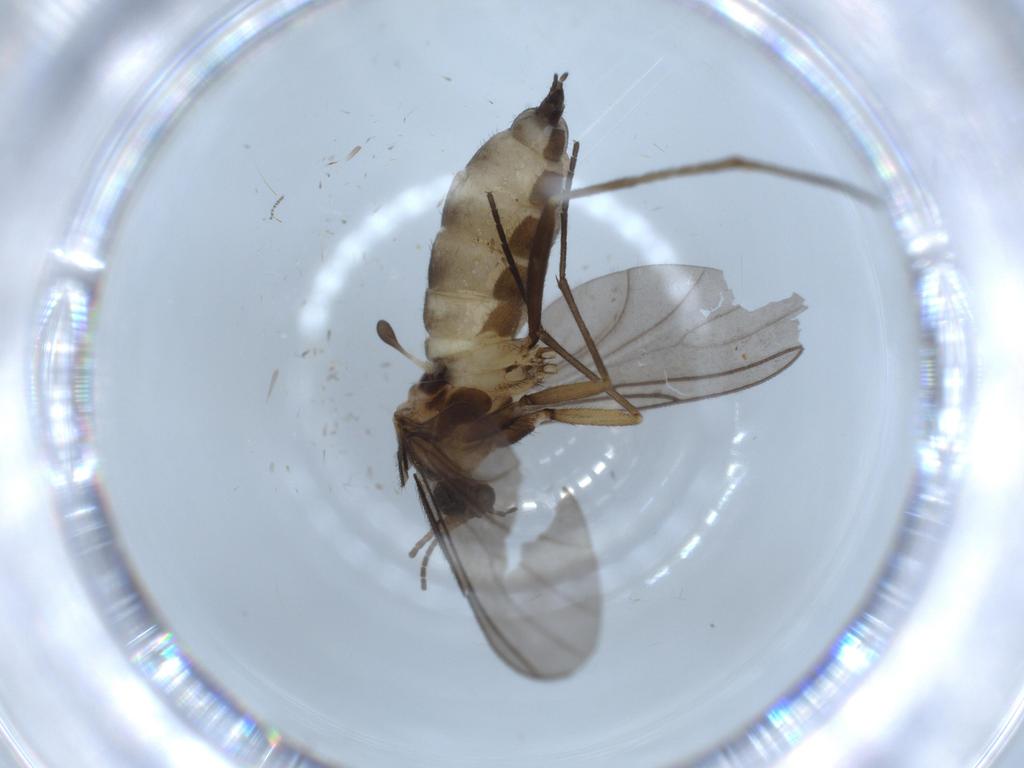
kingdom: Animalia
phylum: Arthropoda
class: Insecta
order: Diptera
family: Sciaridae
